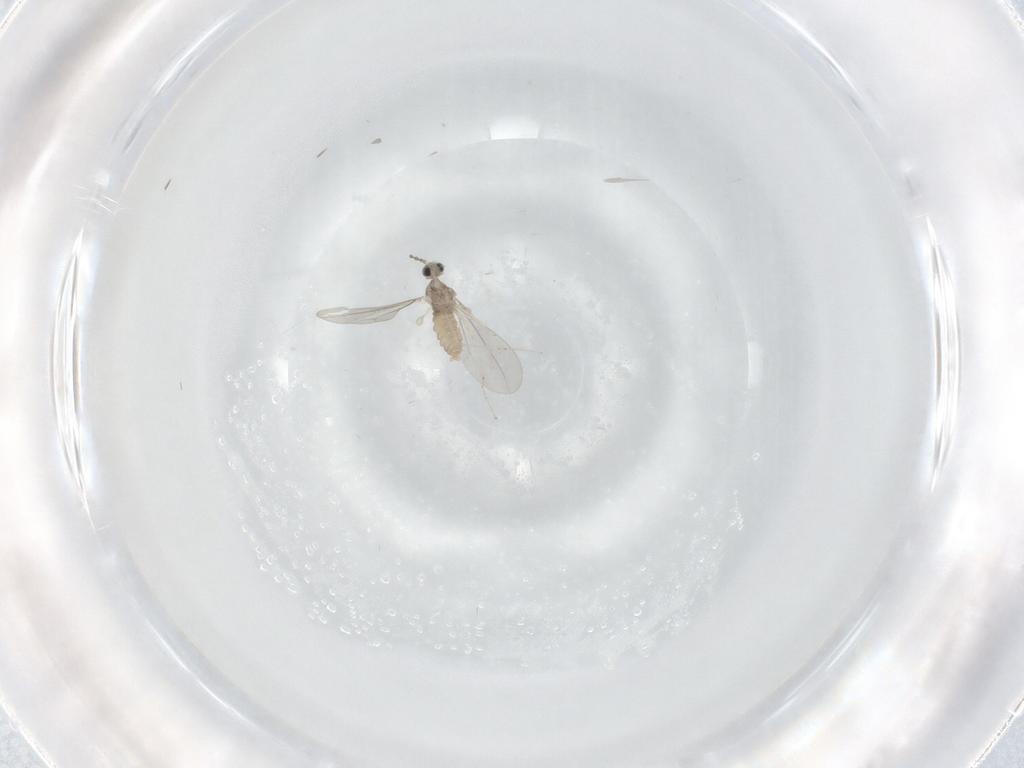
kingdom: Animalia
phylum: Arthropoda
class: Insecta
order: Diptera
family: Cecidomyiidae
